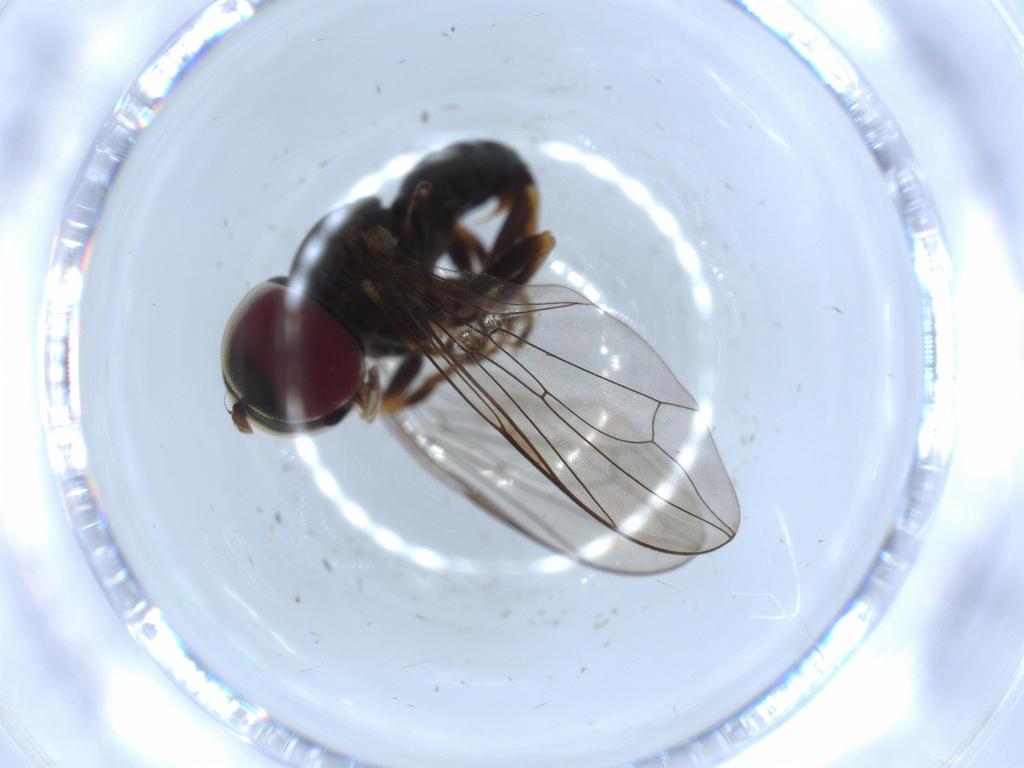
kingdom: Animalia
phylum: Arthropoda
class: Insecta
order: Diptera
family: Pipunculidae
